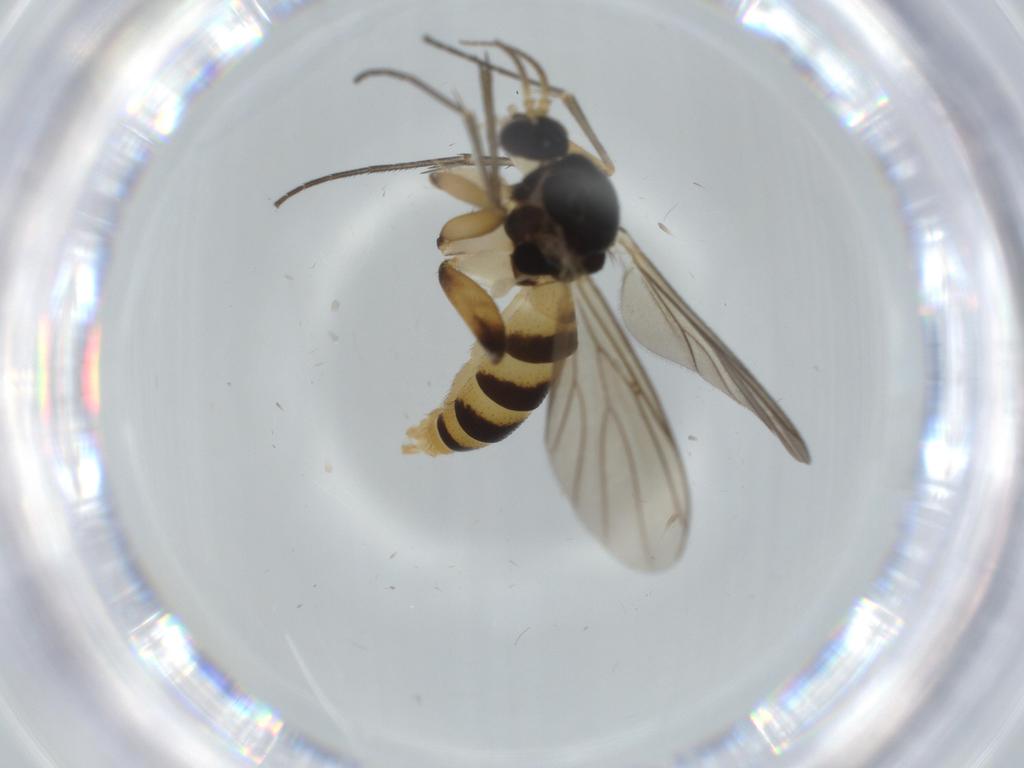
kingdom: Animalia
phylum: Arthropoda
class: Insecta
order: Diptera
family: Mycetophilidae
